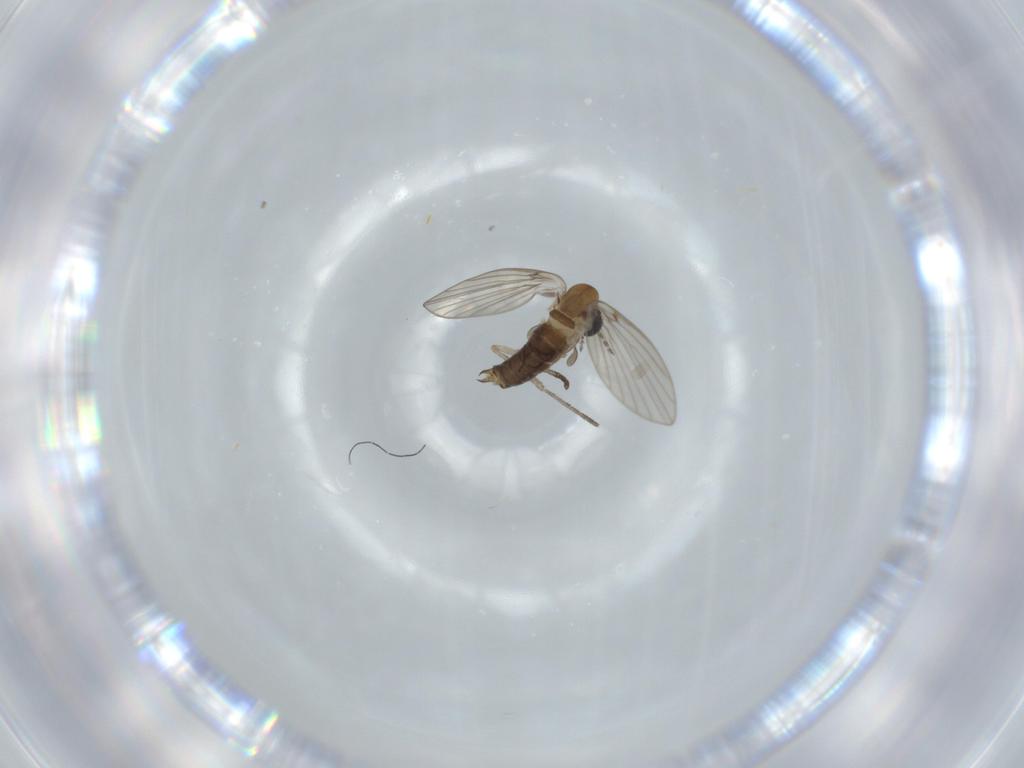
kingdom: Animalia
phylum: Arthropoda
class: Insecta
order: Diptera
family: Psychodidae
